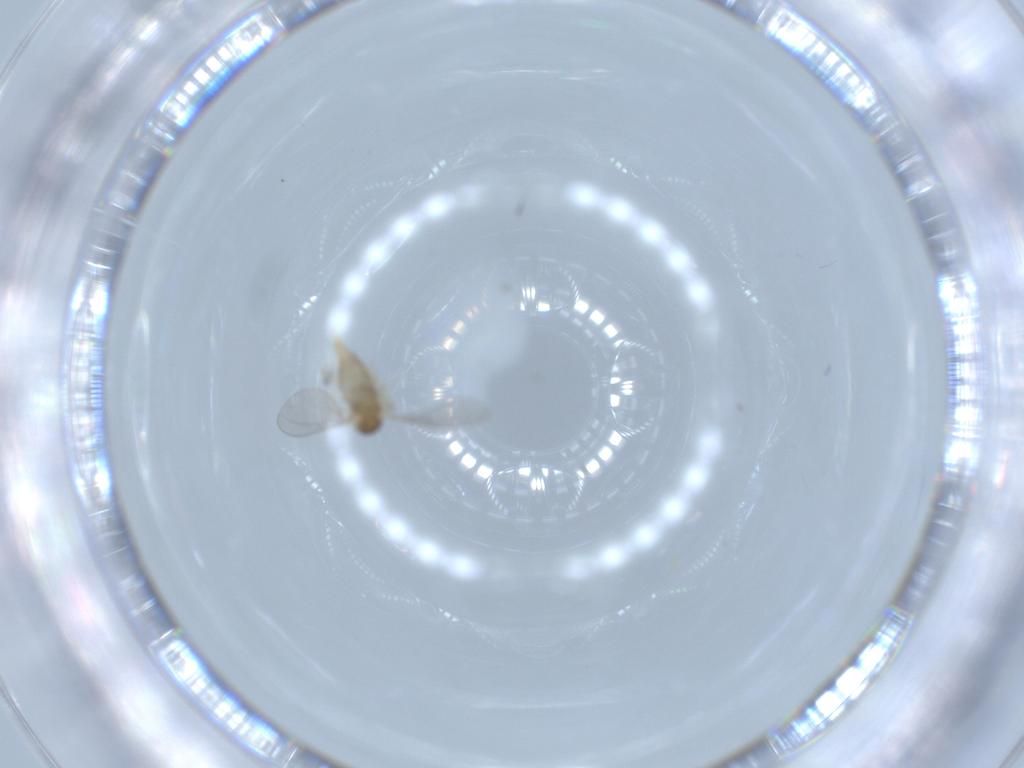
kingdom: Animalia
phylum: Arthropoda
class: Insecta
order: Diptera
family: Cecidomyiidae
